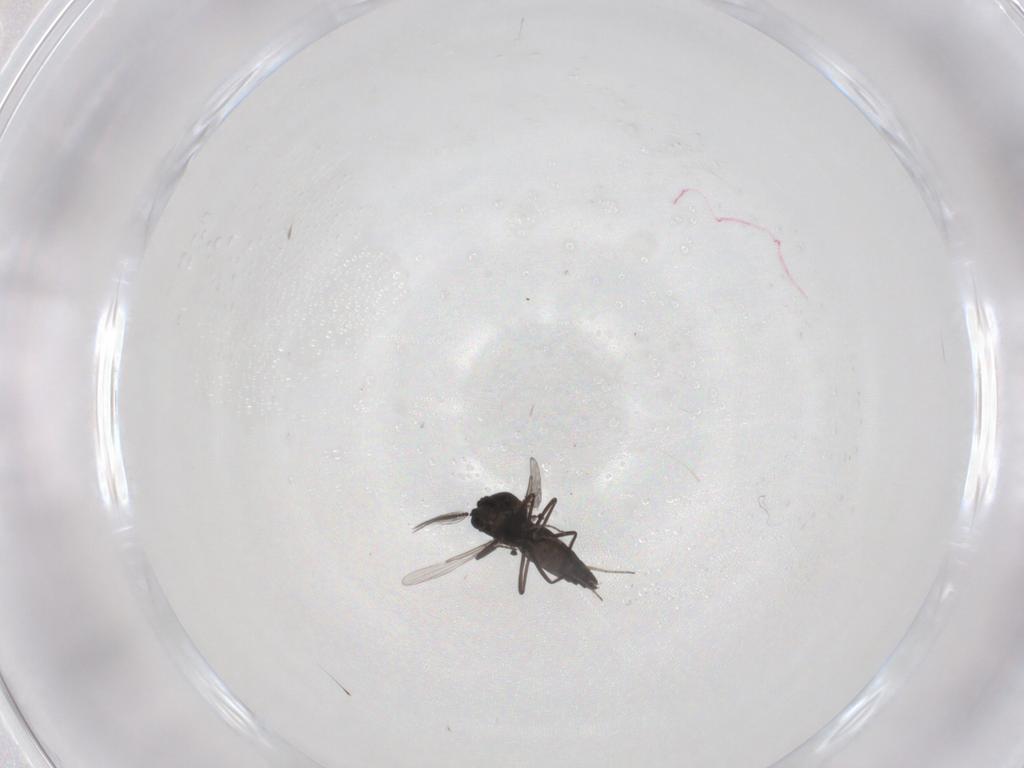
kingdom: Animalia
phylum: Arthropoda
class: Insecta
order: Diptera
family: Ceratopogonidae
